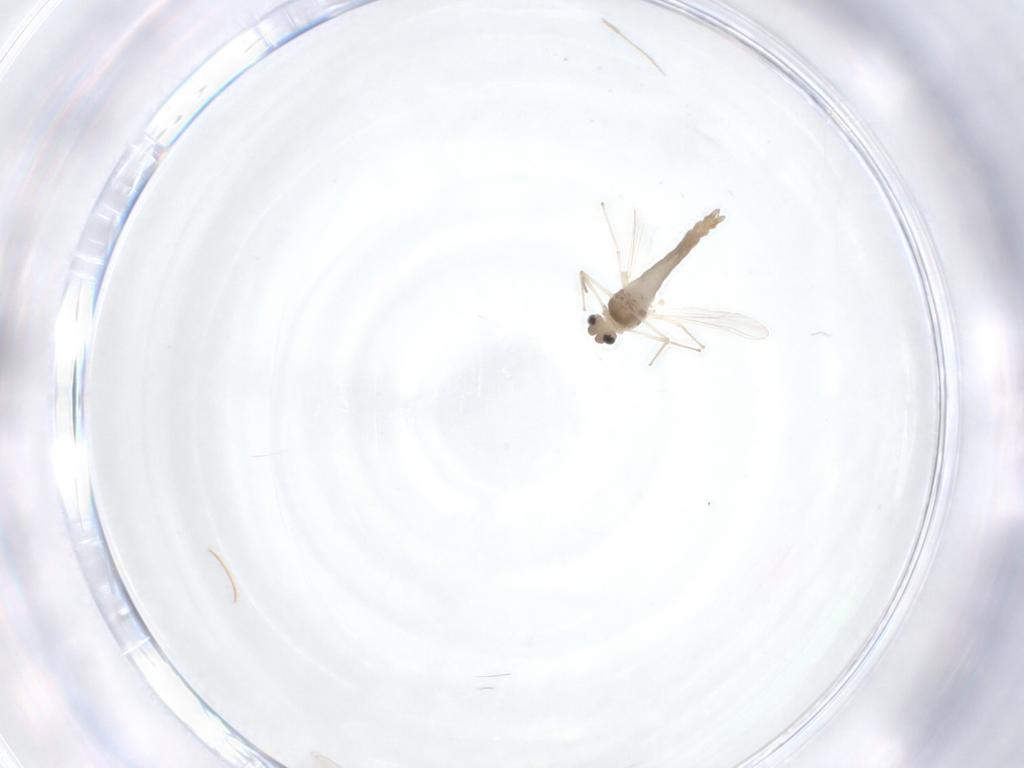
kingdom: Animalia
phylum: Arthropoda
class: Insecta
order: Diptera
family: Chironomidae
